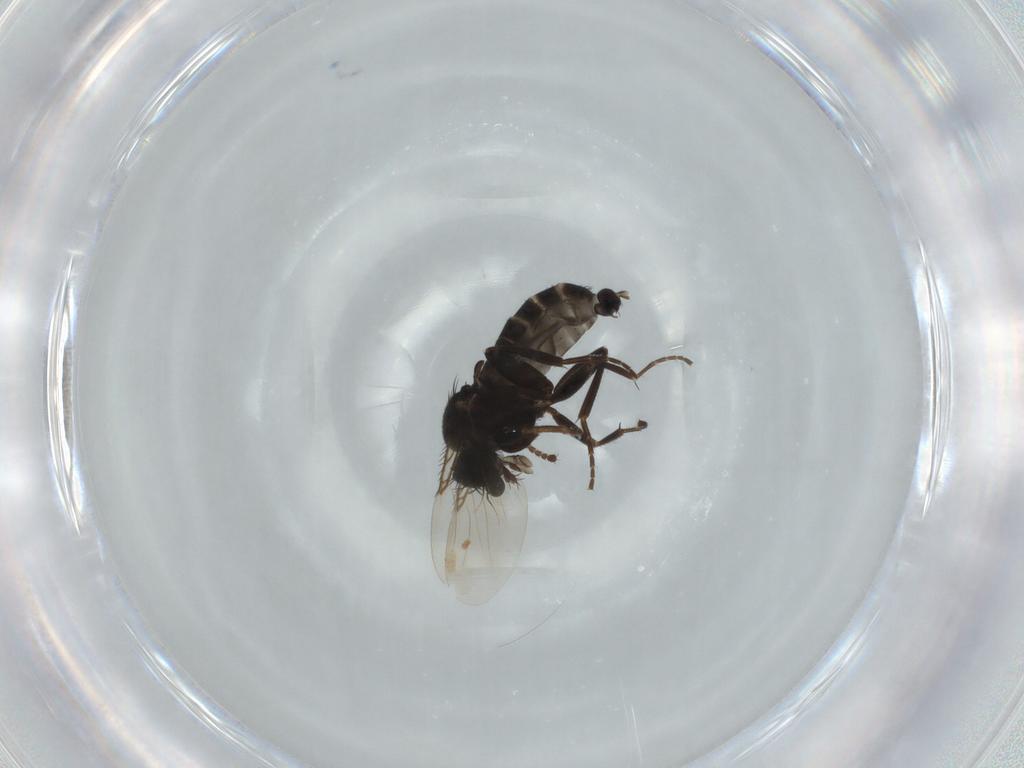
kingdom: Animalia
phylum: Arthropoda
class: Insecta
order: Diptera
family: Phoridae
